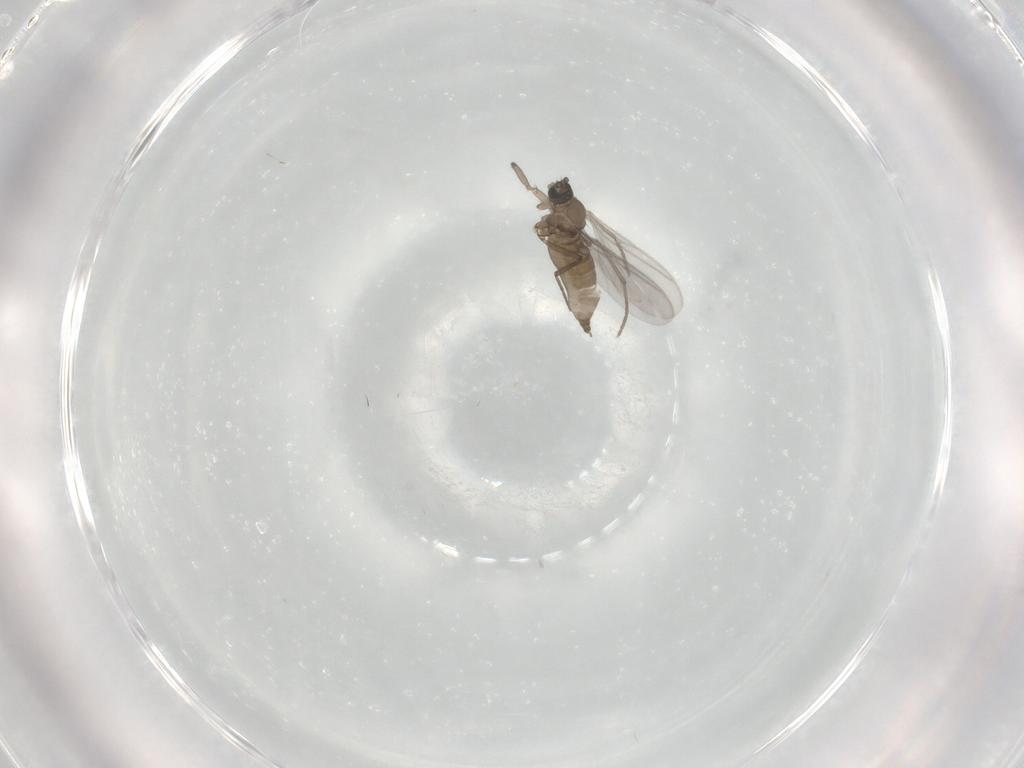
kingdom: Animalia
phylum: Arthropoda
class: Insecta
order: Diptera
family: Sciaridae
